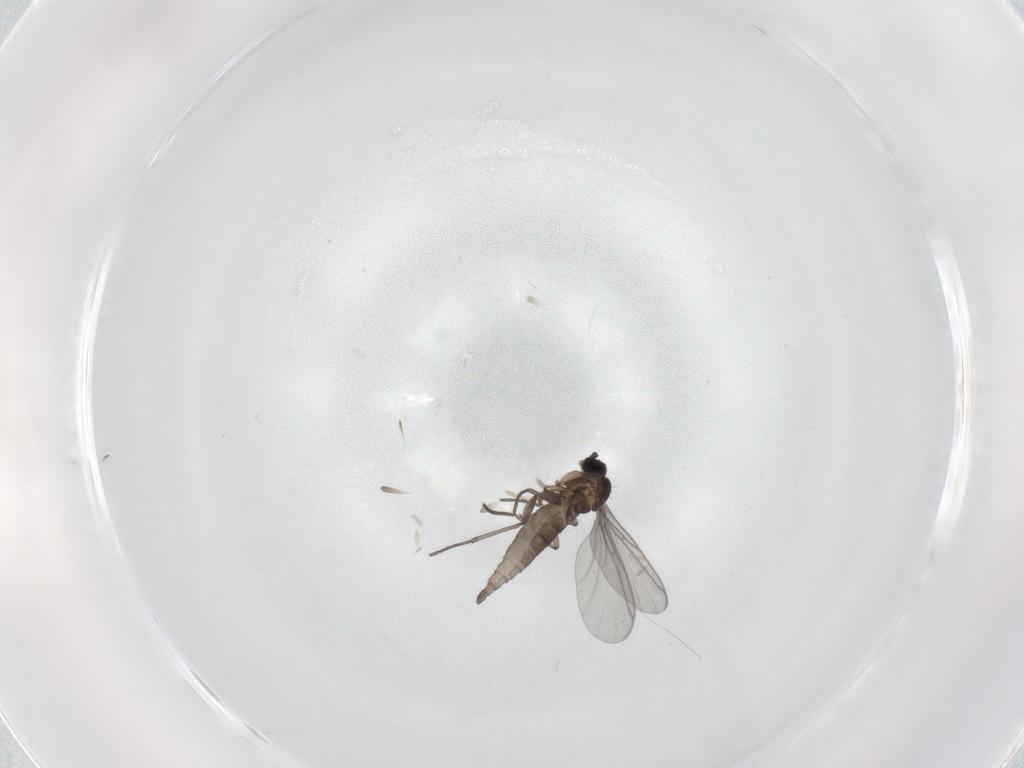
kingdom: Animalia
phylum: Arthropoda
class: Insecta
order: Diptera
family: Sciaridae
